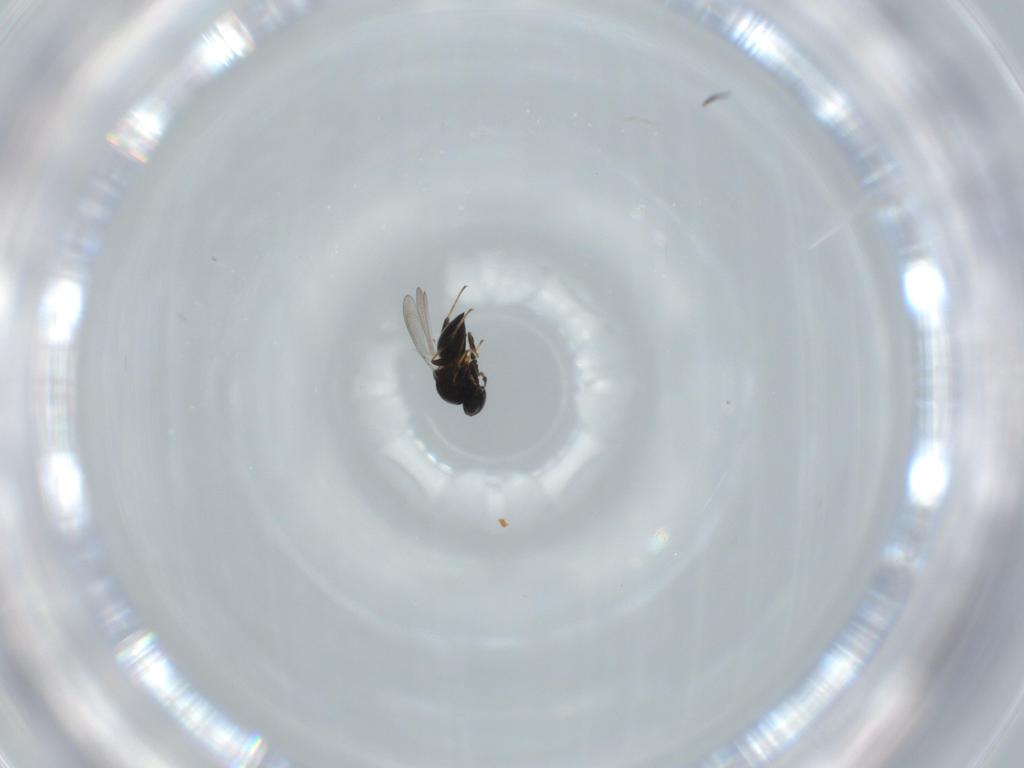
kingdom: Animalia
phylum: Arthropoda
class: Insecta
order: Hymenoptera
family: Platygastridae
